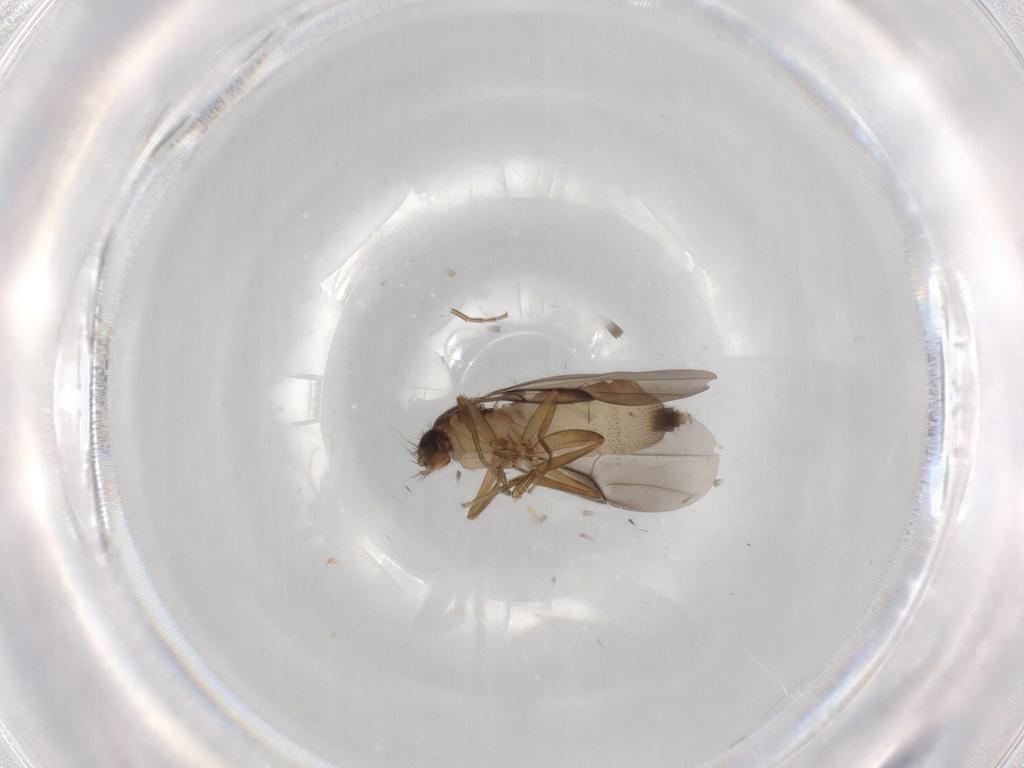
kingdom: Animalia
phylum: Arthropoda
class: Insecta
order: Diptera
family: Phoridae
